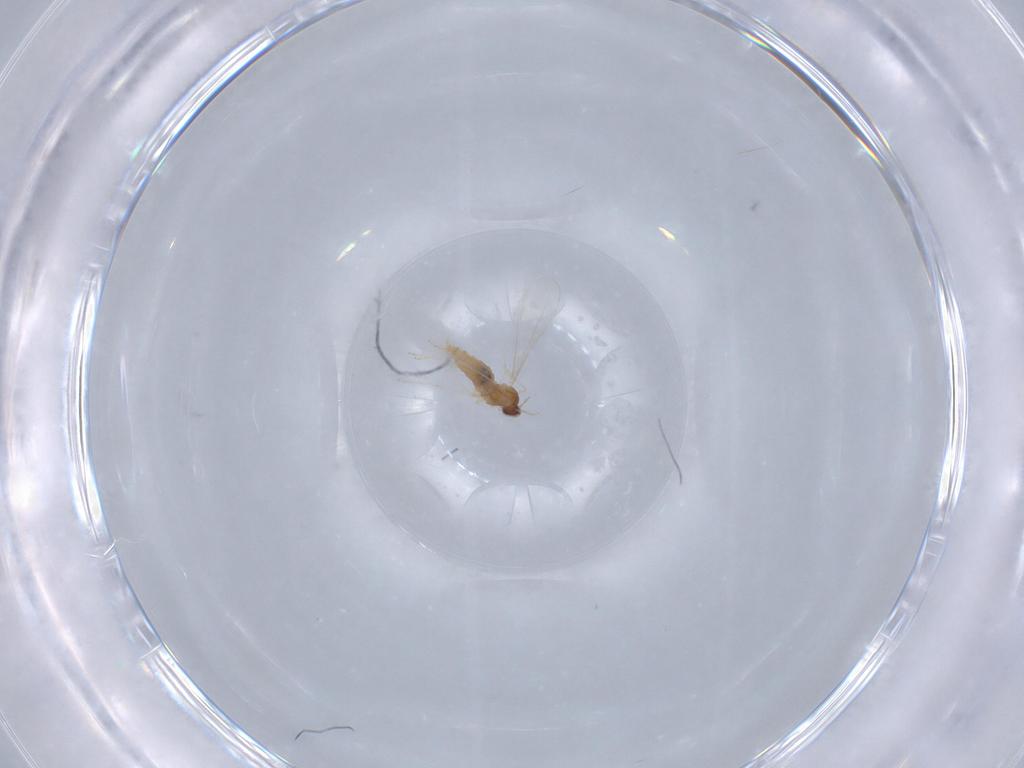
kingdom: Animalia
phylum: Arthropoda
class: Insecta
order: Diptera
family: Cecidomyiidae
